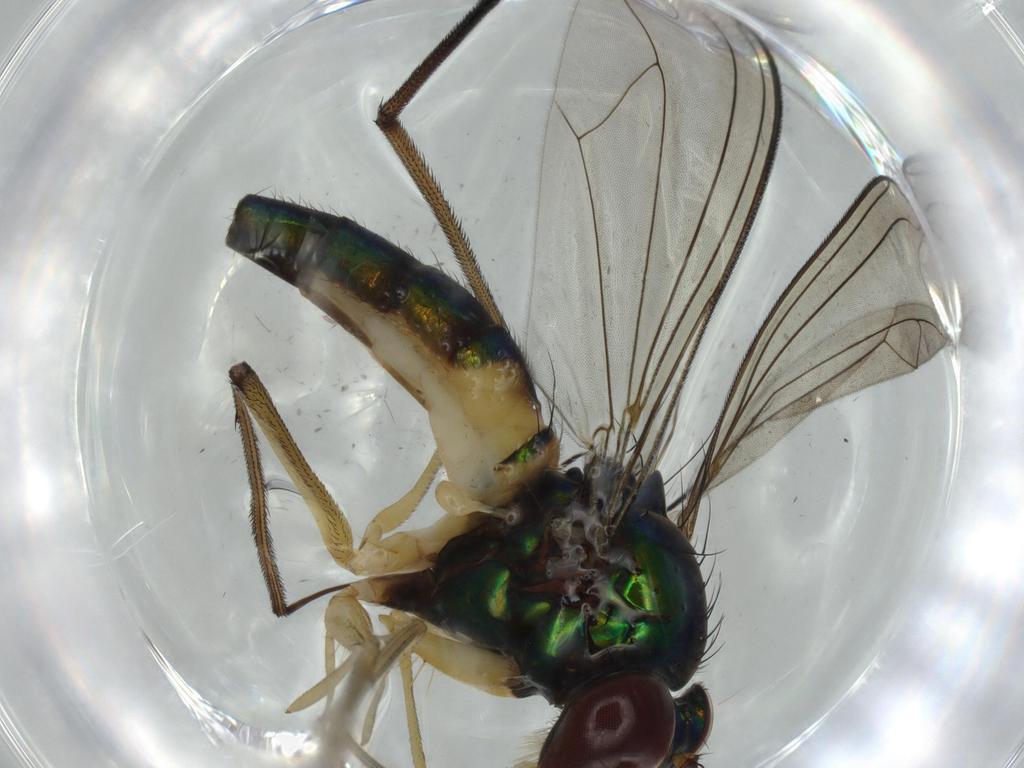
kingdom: Animalia
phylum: Arthropoda
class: Insecta
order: Diptera
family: Dolichopodidae
